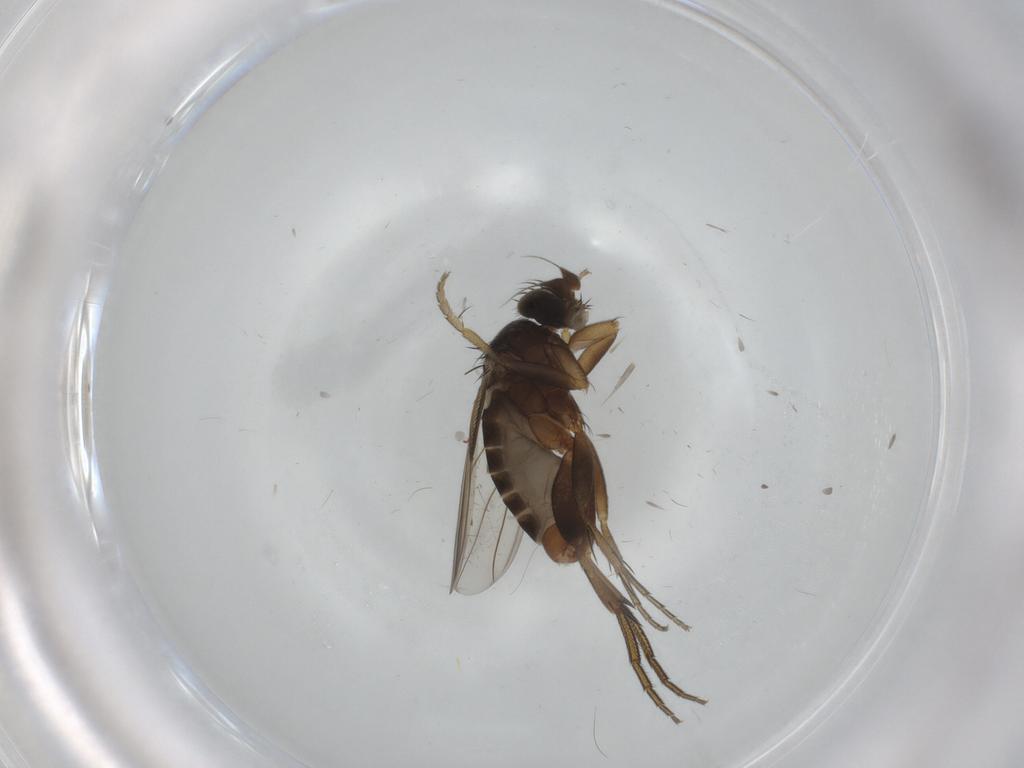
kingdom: Animalia
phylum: Arthropoda
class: Insecta
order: Diptera
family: Phoridae
